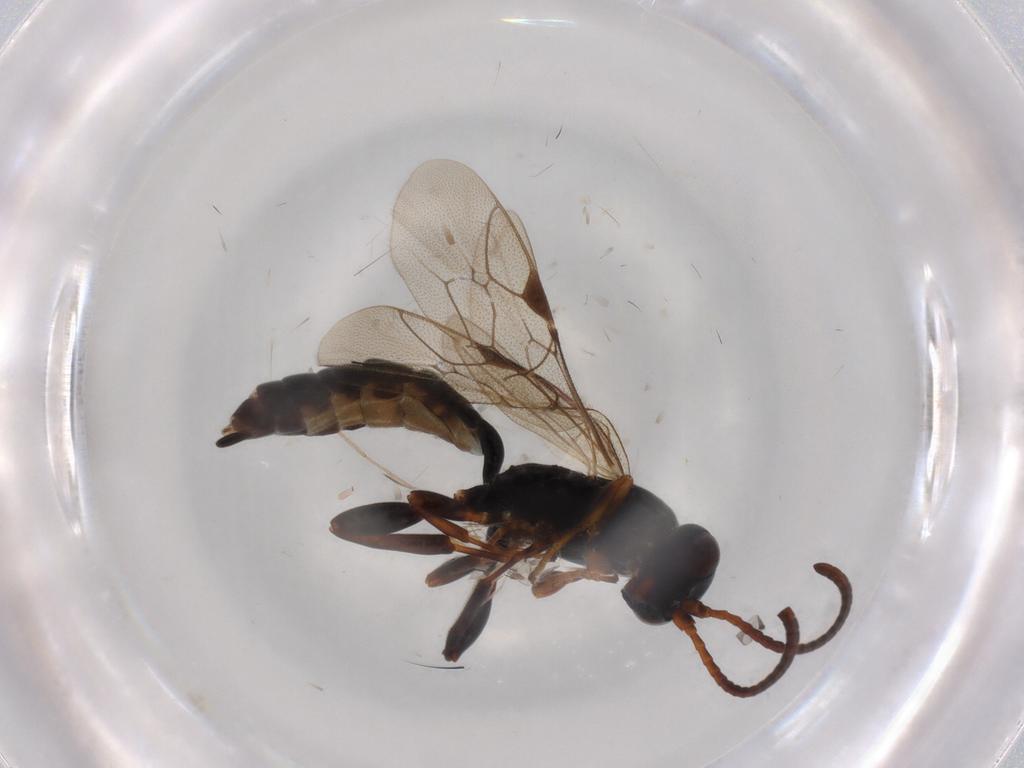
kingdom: Animalia
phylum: Arthropoda
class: Insecta
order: Hymenoptera
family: Ichneumonidae
